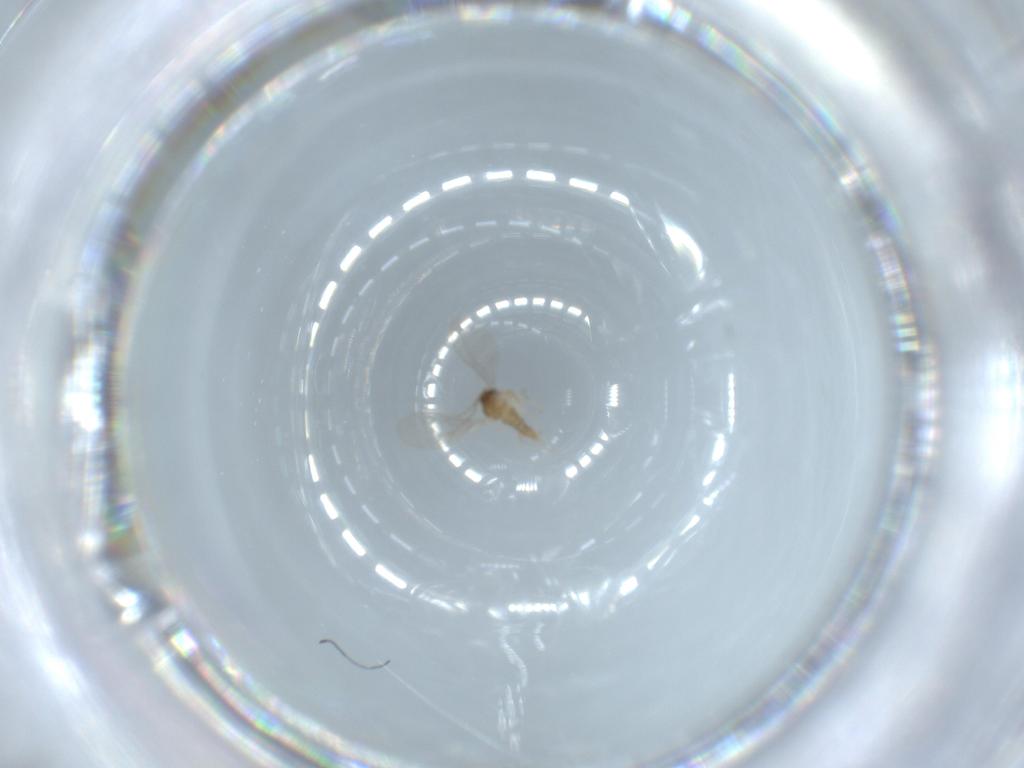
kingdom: Animalia
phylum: Arthropoda
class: Insecta
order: Diptera
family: Cecidomyiidae
